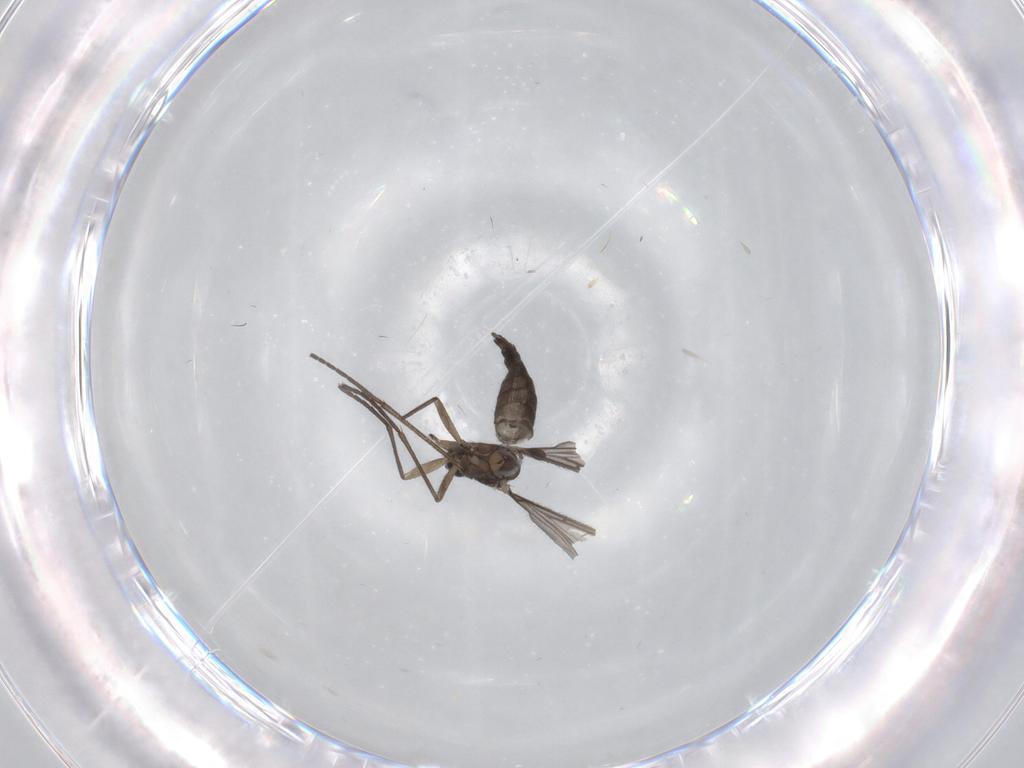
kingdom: Animalia
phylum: Arthropoda
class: Insecta
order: Diptera
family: Sciaridae
